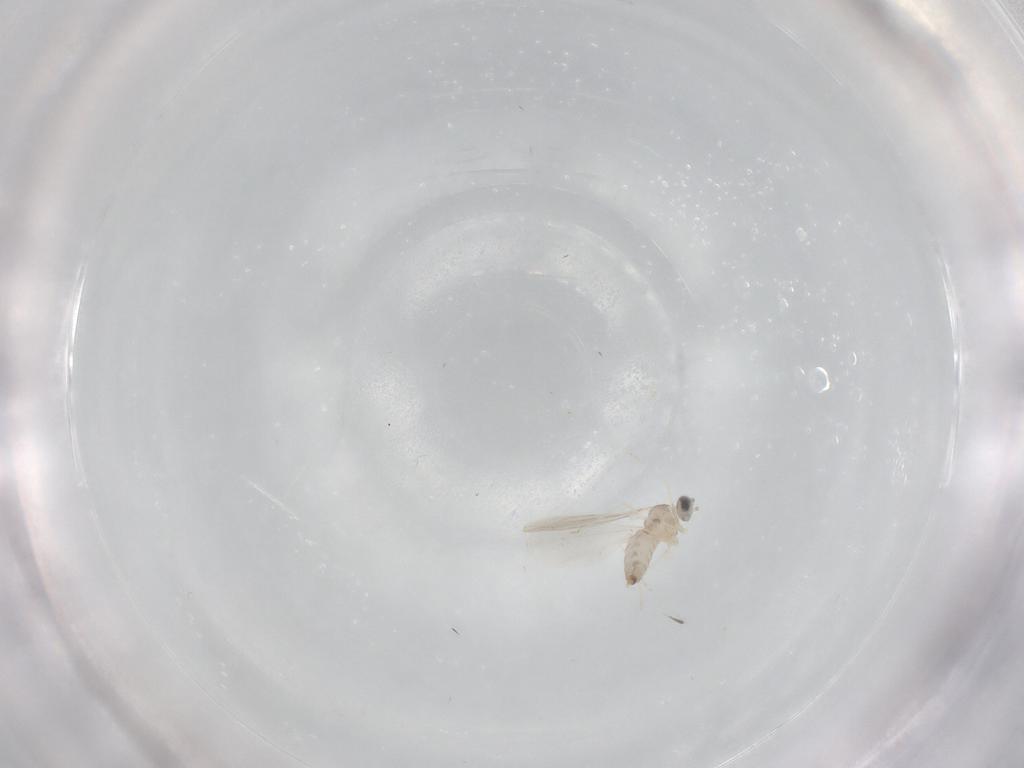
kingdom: Animalia
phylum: Arthropoda
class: Insecta
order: Diptera
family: Cecidomyiidae
